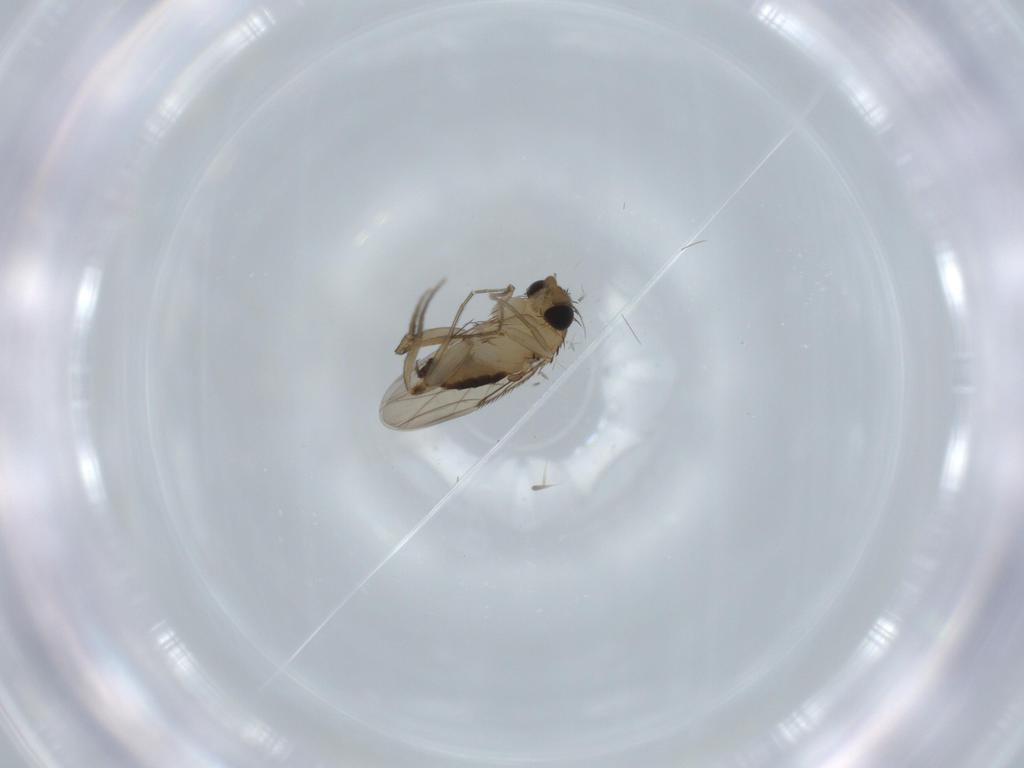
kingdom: Animalia
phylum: Arthropoda
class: Insecta
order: Diptera
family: Phoridae
